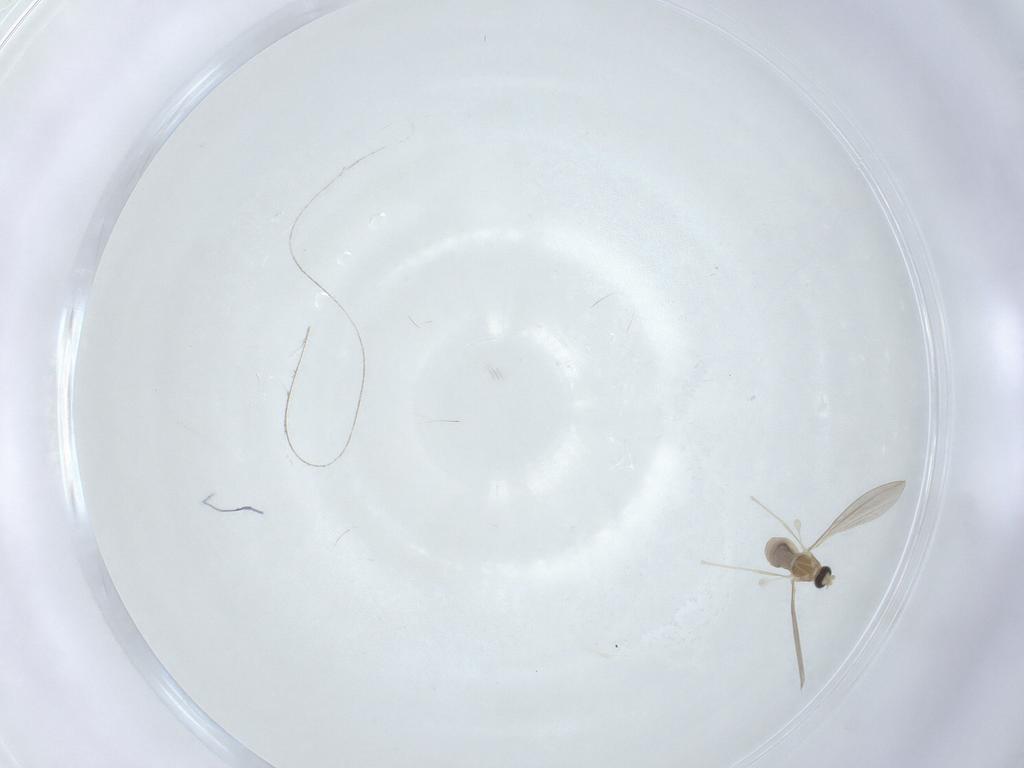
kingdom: Animalia
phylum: Arthropoda
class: Insecta
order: Diptera
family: Ceratopogonidae
